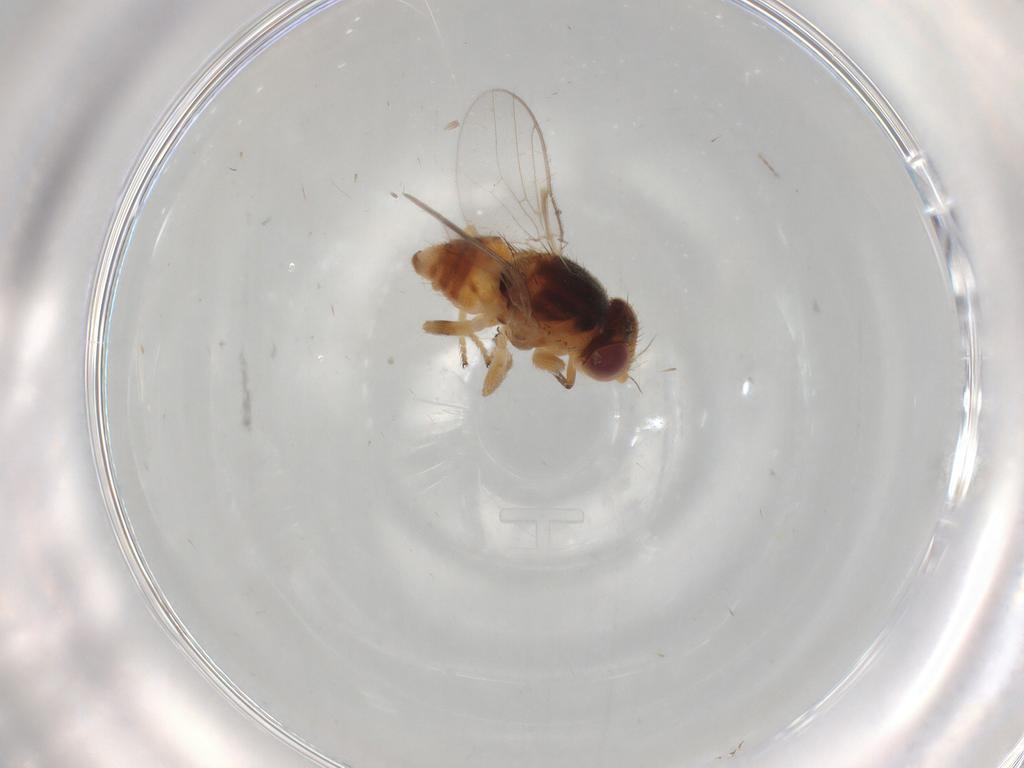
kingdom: Animalia
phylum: Arthropoda
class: Insecta
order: Diptera
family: Chloropidae
